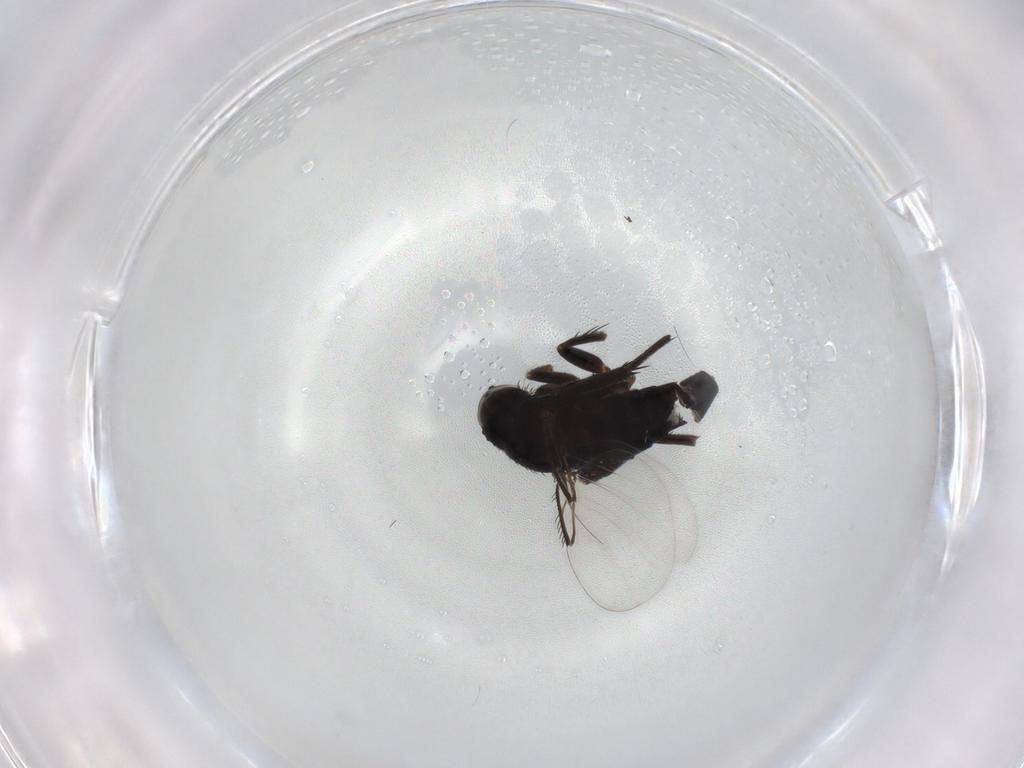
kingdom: Animalia
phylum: Arthropoda
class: Insecta
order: Diptera
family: Phoridae
